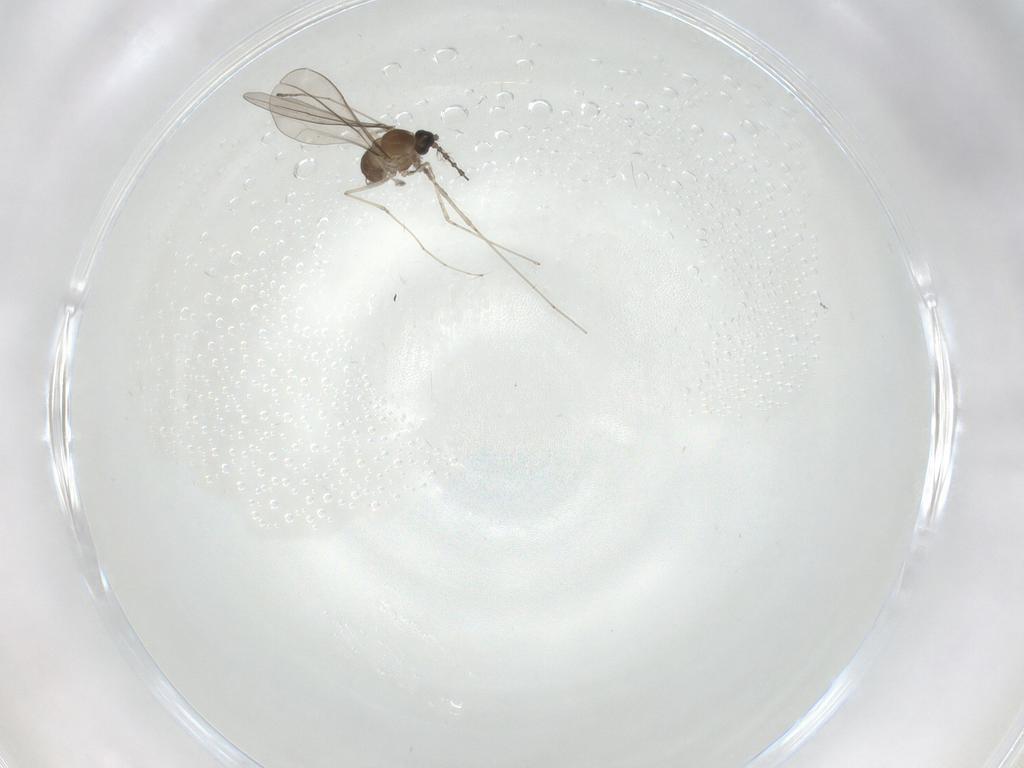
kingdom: Animalia
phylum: Arthropoda
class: Insecta
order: Diptera
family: Cecidomyiidae
